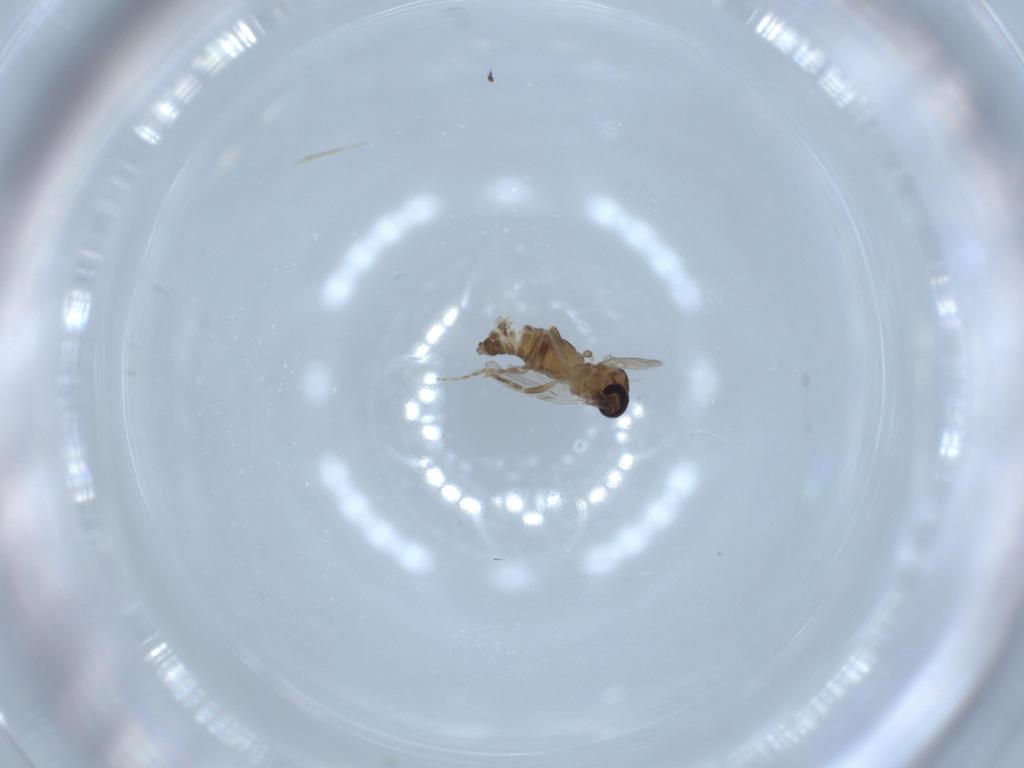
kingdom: Animalia
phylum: Arthropoda
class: Insecta
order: Diptera
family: Ceratopogonidae
